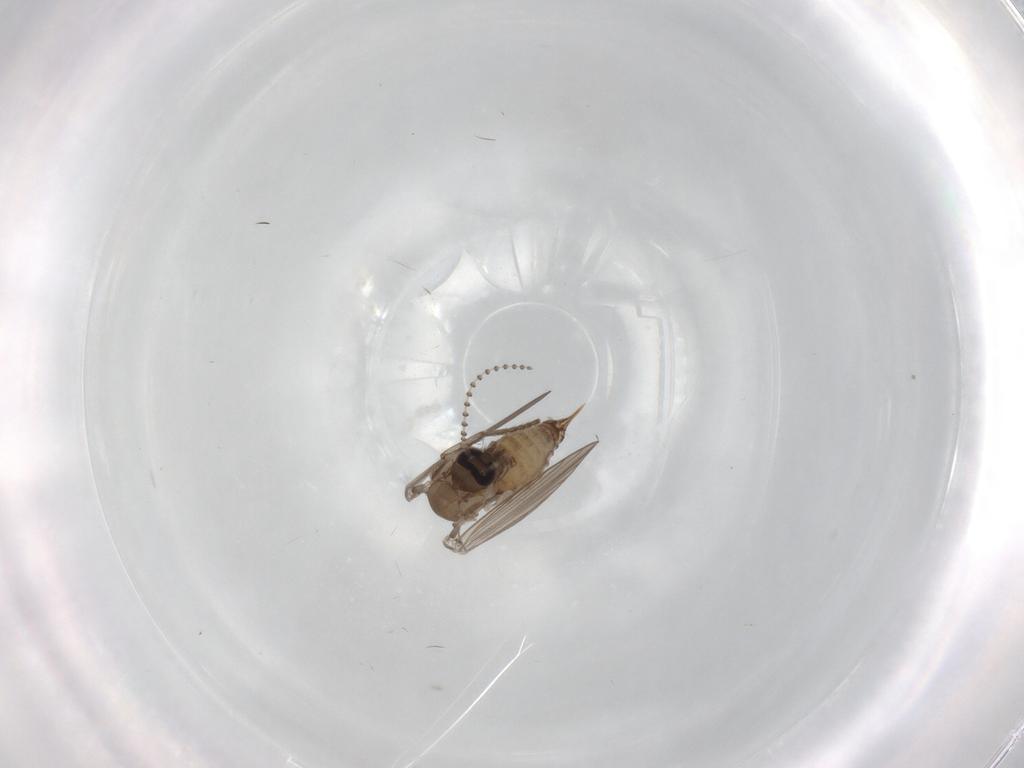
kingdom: Animalia
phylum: Arthropoda
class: Insecta
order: Diptera
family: Psychodidae
